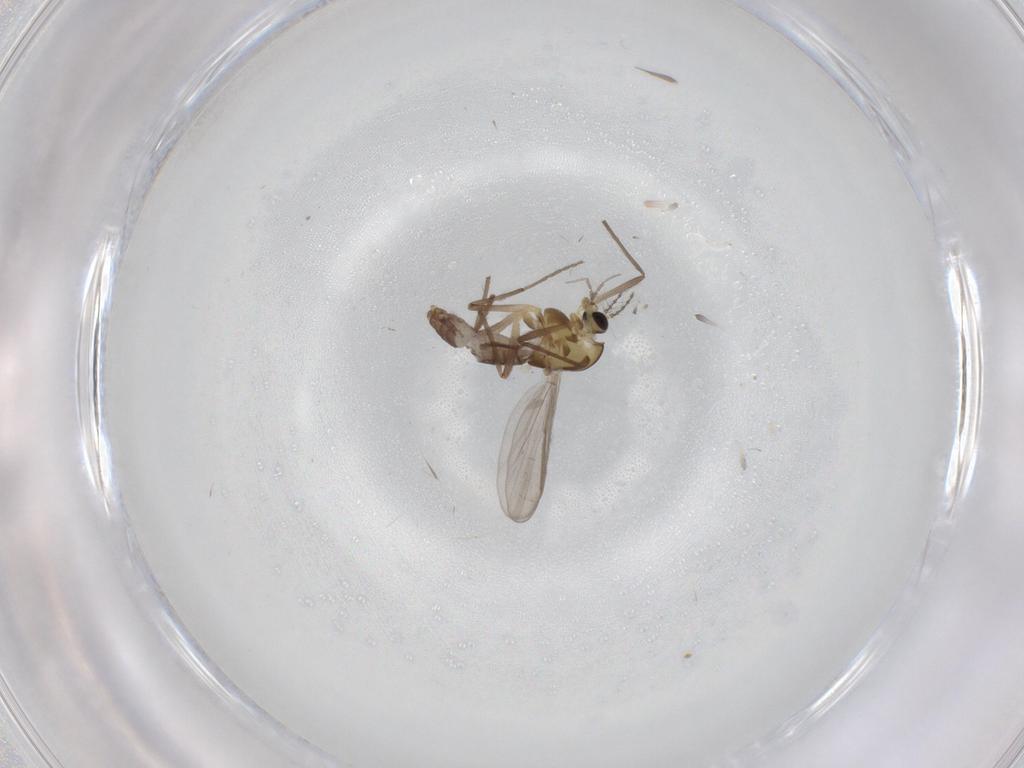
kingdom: Animalia
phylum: Arthropoda
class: Insecta
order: Diptera
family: Chironomidae
